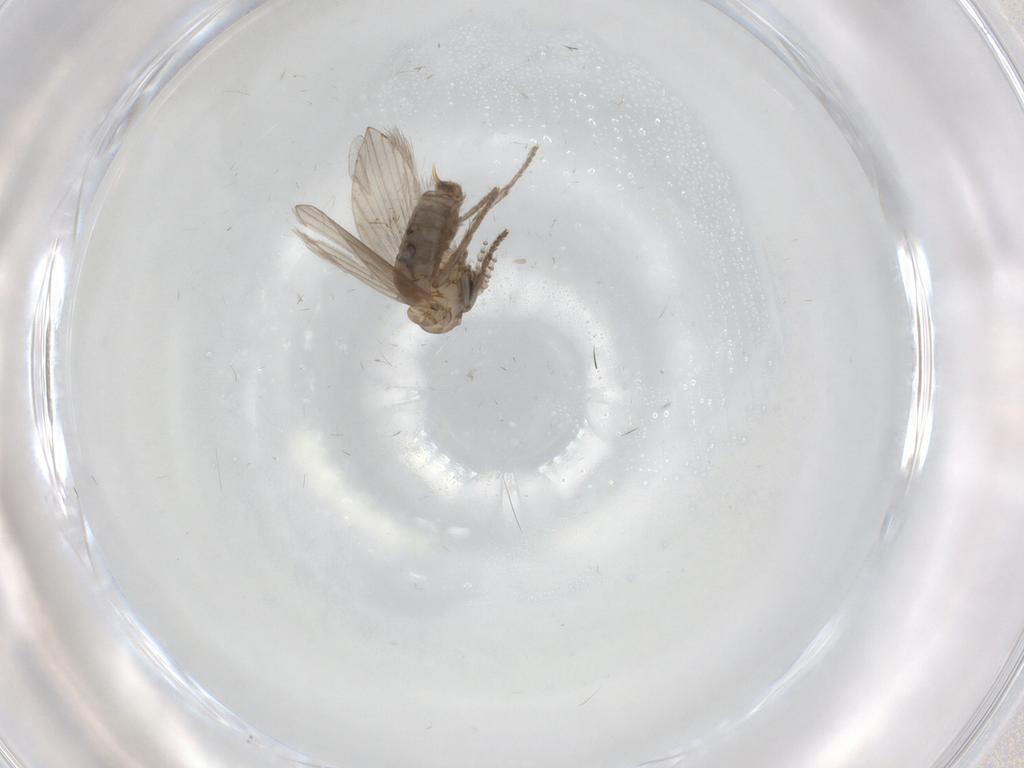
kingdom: Animalia
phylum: Arthropoda
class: Insecta
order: Diptera
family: Psychodidae
